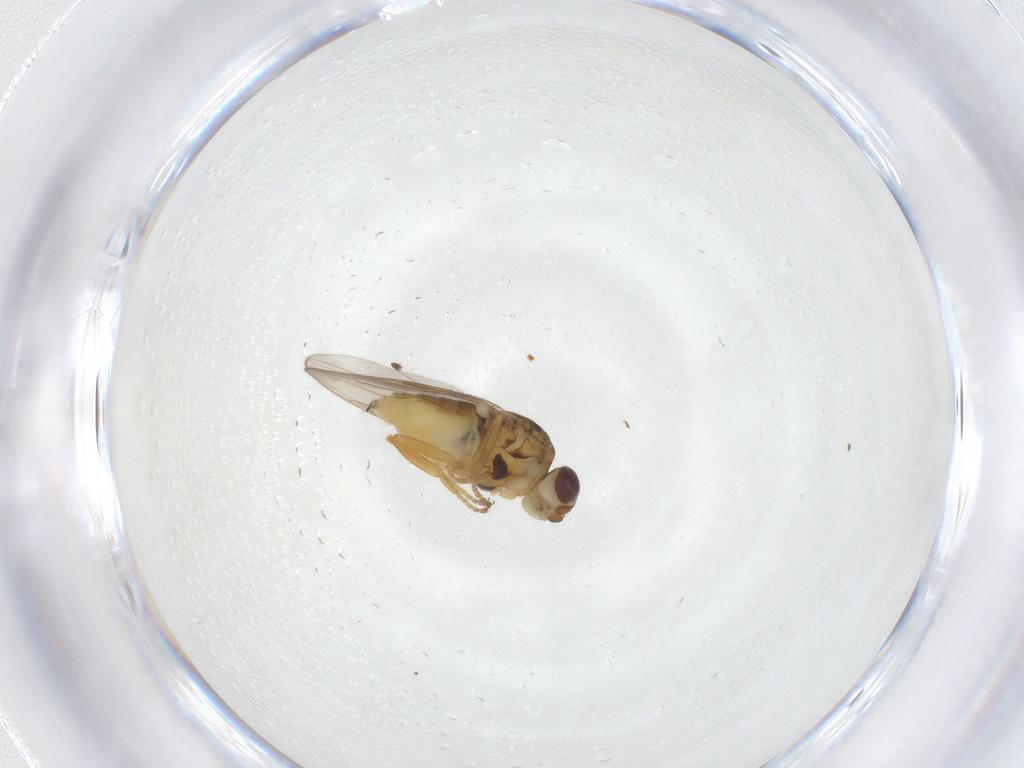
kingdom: Animalia
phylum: Arthropoda
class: Insecta
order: Diptera
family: Chloropidae
